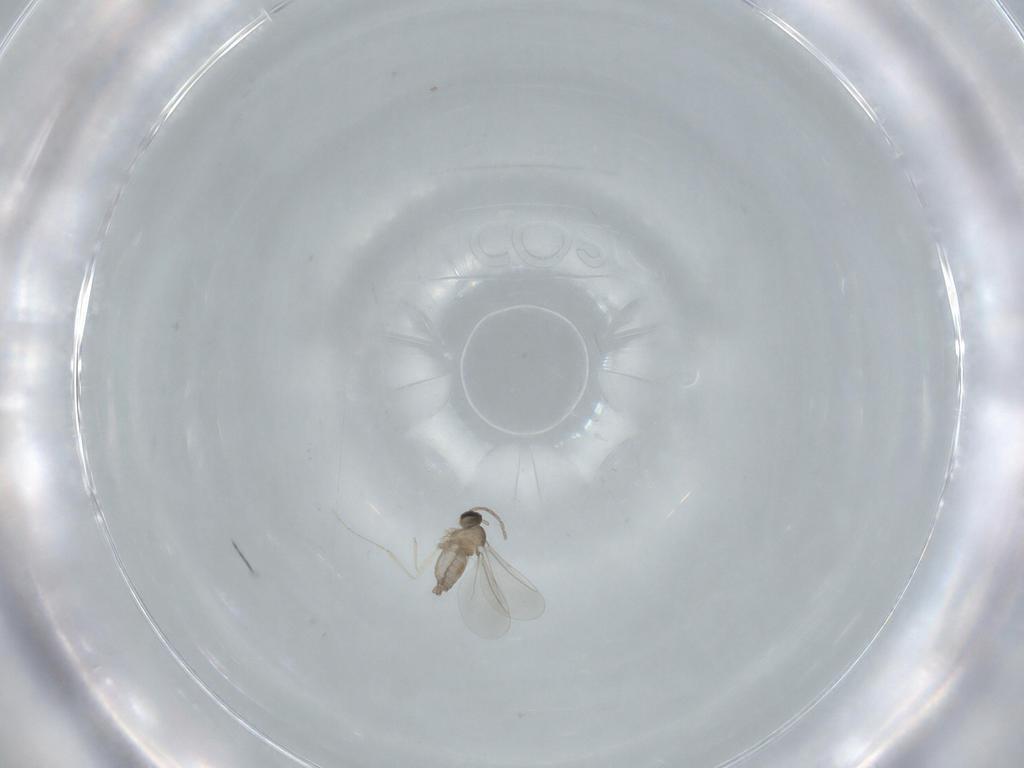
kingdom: Animalia
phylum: Arthropoda
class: Insecta
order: Diptera
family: Cecidomyiidae
